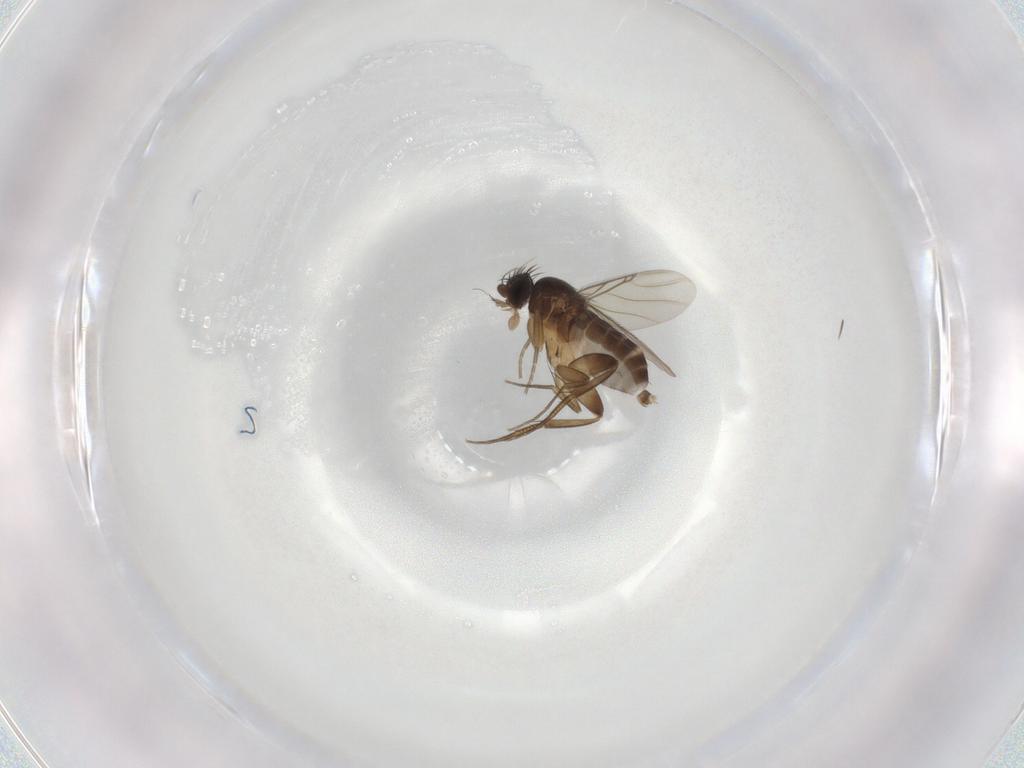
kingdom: Animalia
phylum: Arthropoda
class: Insecta
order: Diptera
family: Phoridae
